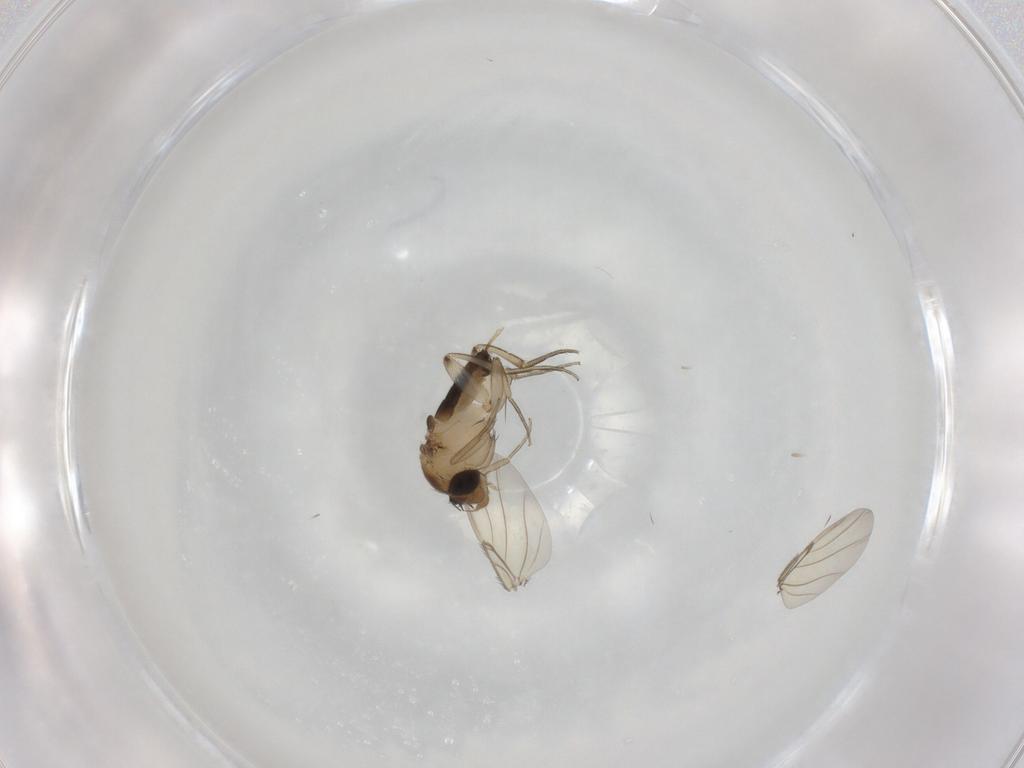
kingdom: Animalia
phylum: Arthropoda
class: Insecta
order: Diptera
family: Phoridae
